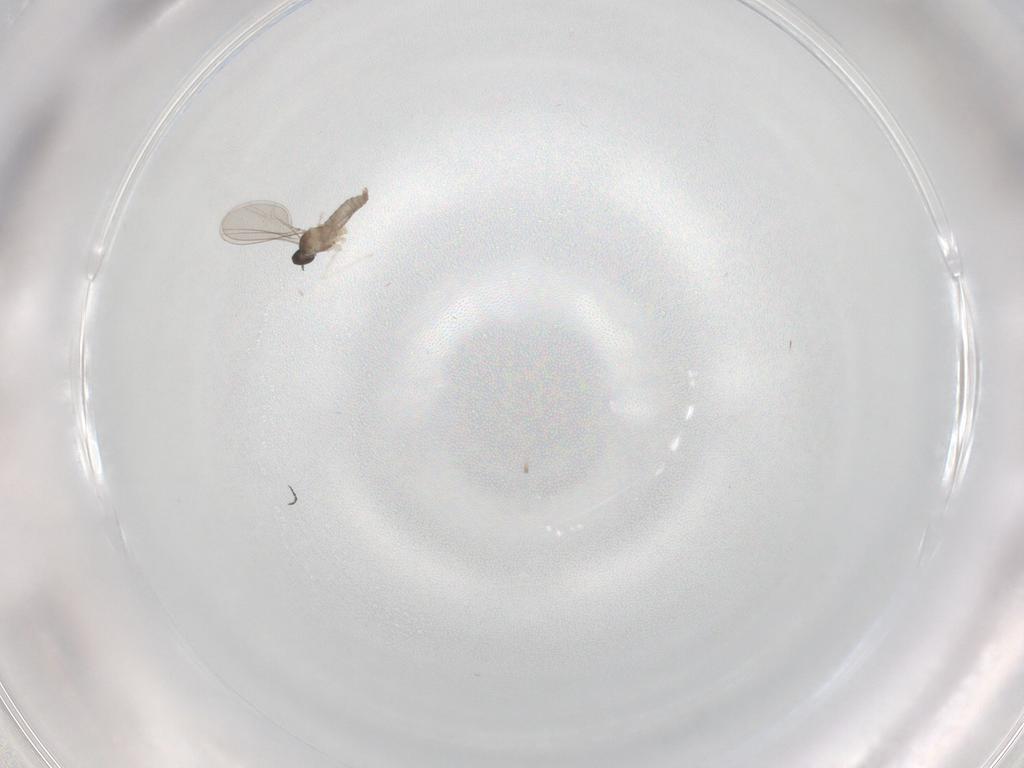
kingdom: Animalia
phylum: Arthropoda
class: Insecta
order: Diptera
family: Cecidomyiidae
